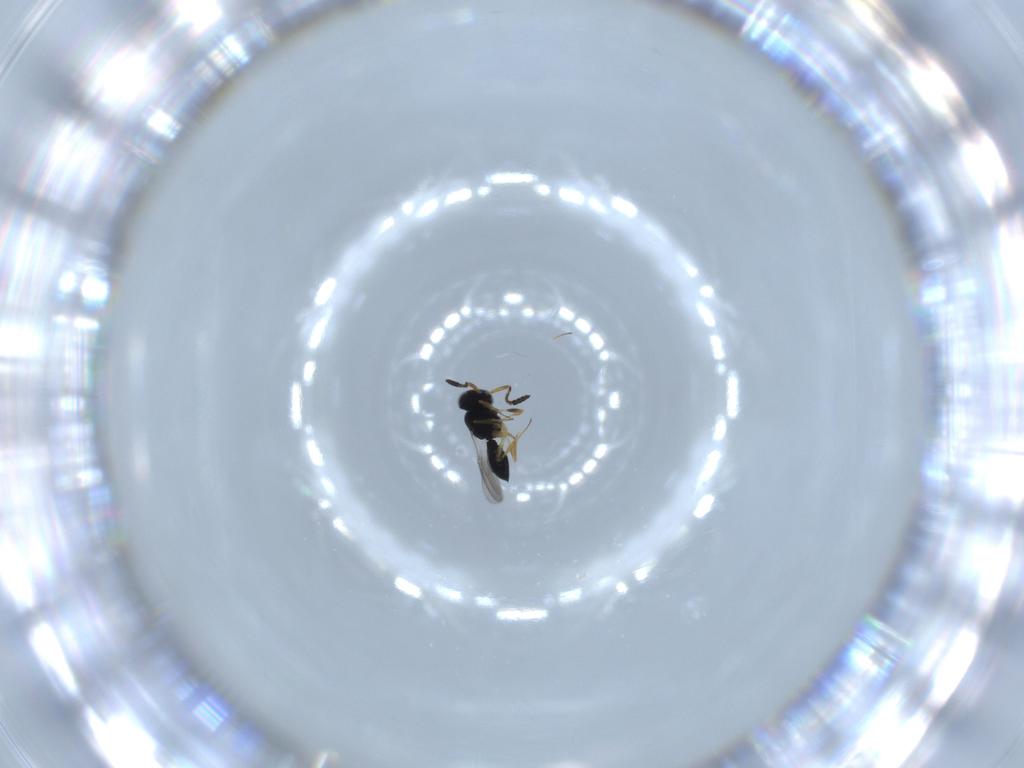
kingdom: Animalia
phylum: Arthropoda
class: Insecta
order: Hymenoptera
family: Scelionidae
